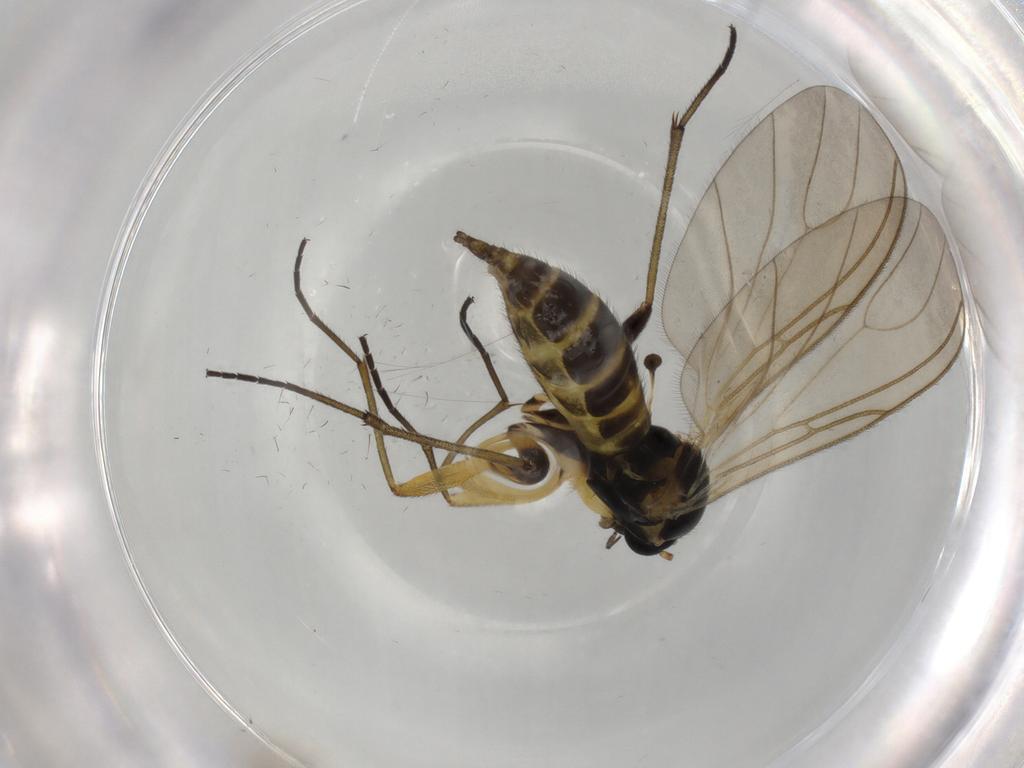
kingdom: Animalia
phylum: Arthropoda
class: Insecta
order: Diptera
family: Sciaridae
